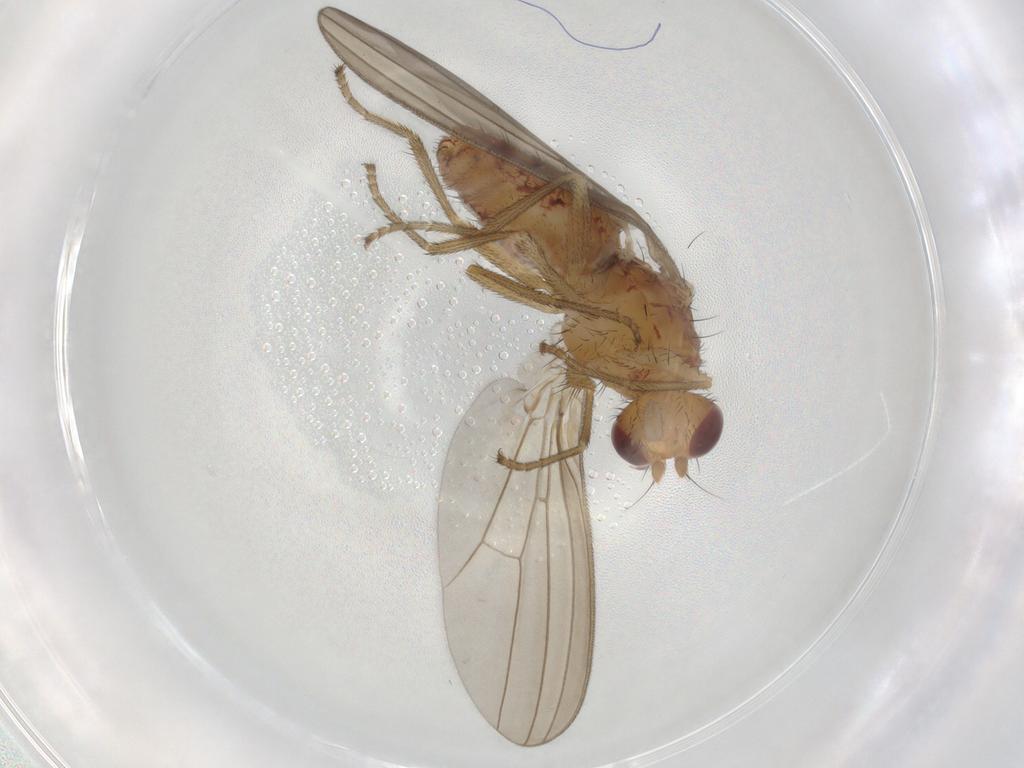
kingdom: Animalia
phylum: Arthropoda
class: Insecta
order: Diptera
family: Natalimyzidae
